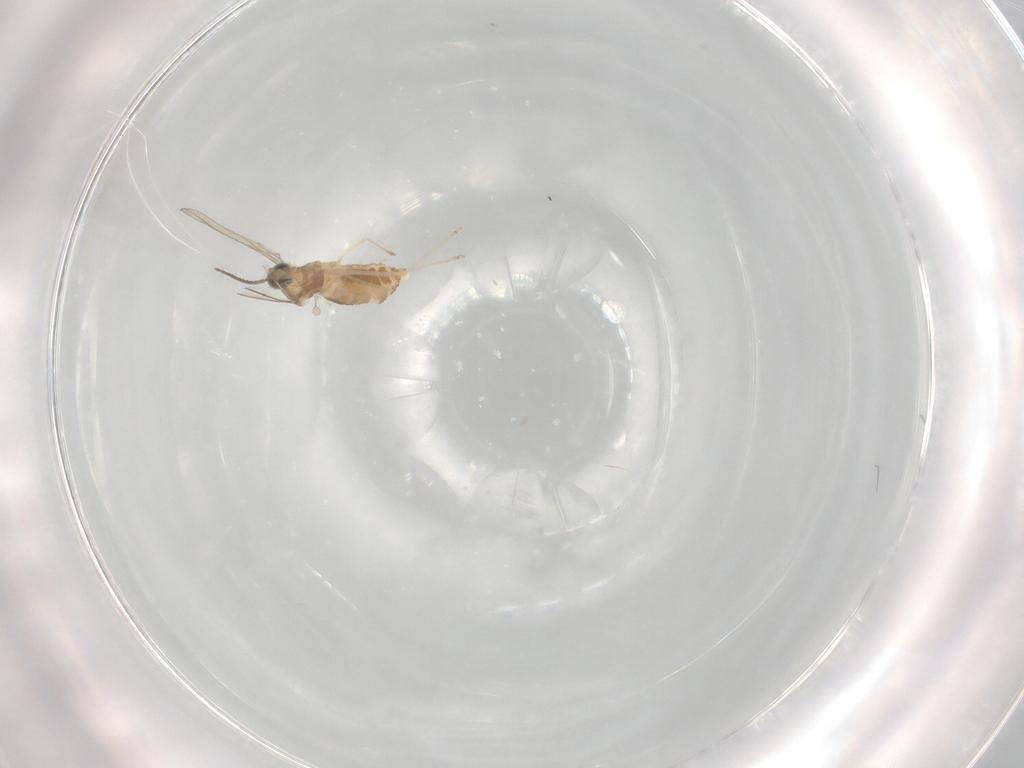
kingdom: Animalia
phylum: Arthropoda
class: Insecta
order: Diptera
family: Cecidomyiidae
